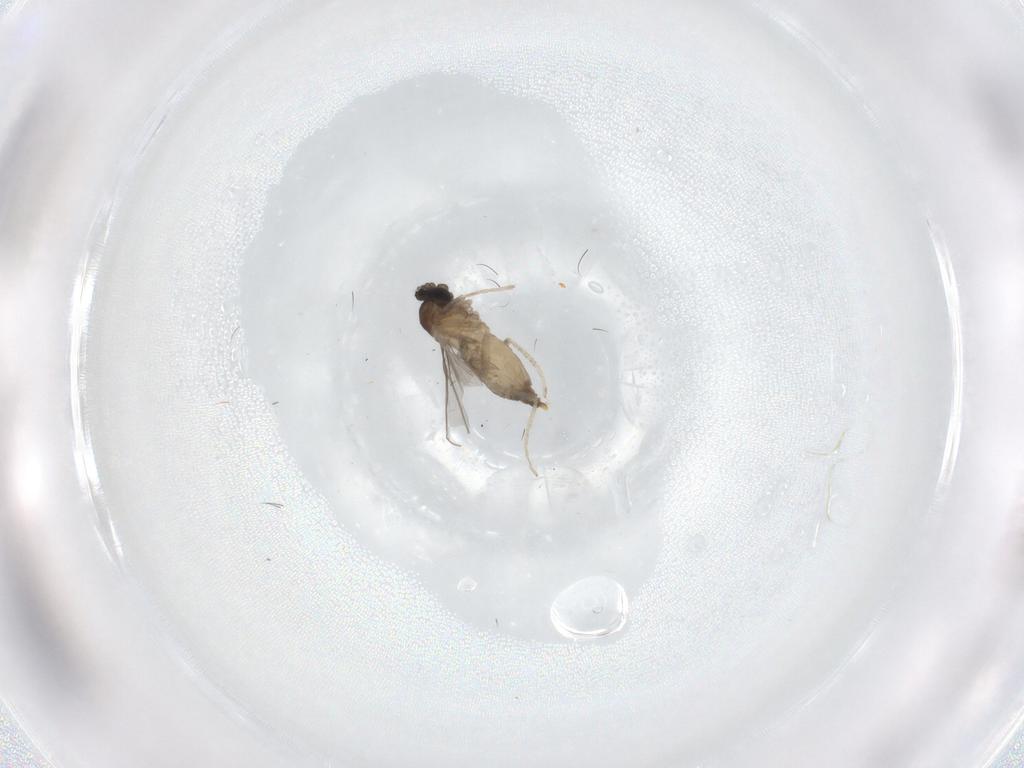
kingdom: Animalia
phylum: Arthropoda
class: Insecta
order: Diptera
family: Cecidomyiidae
